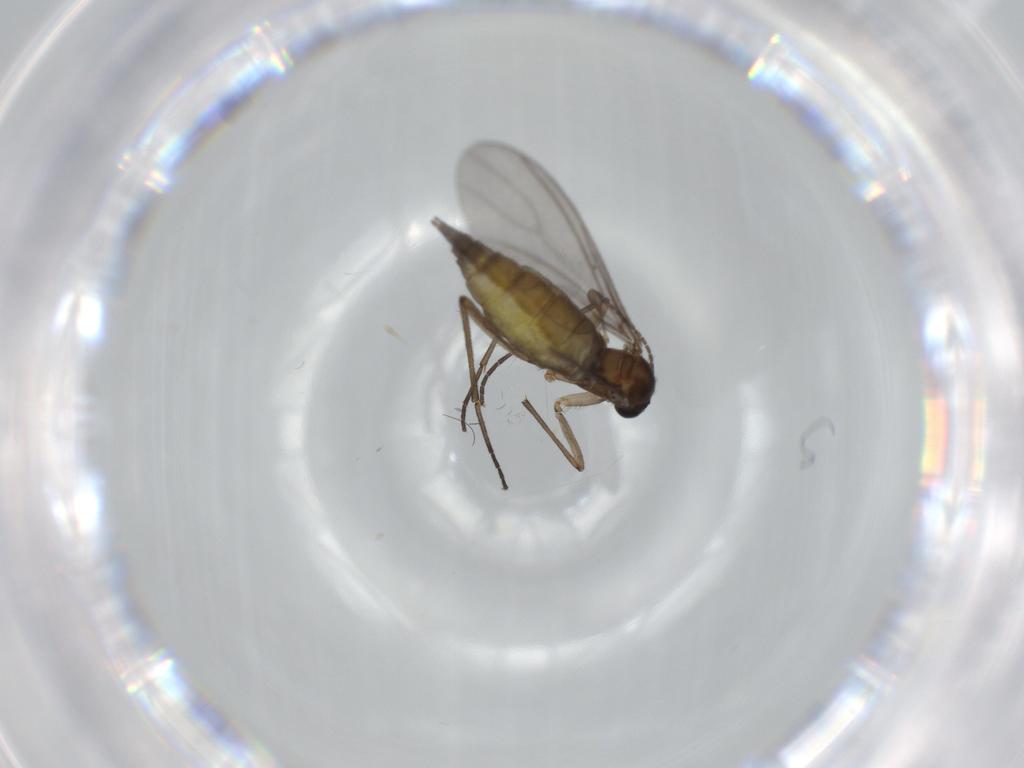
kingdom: Animalia
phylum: Arthropoda
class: Insecta
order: Diptera
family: Sciaridae
